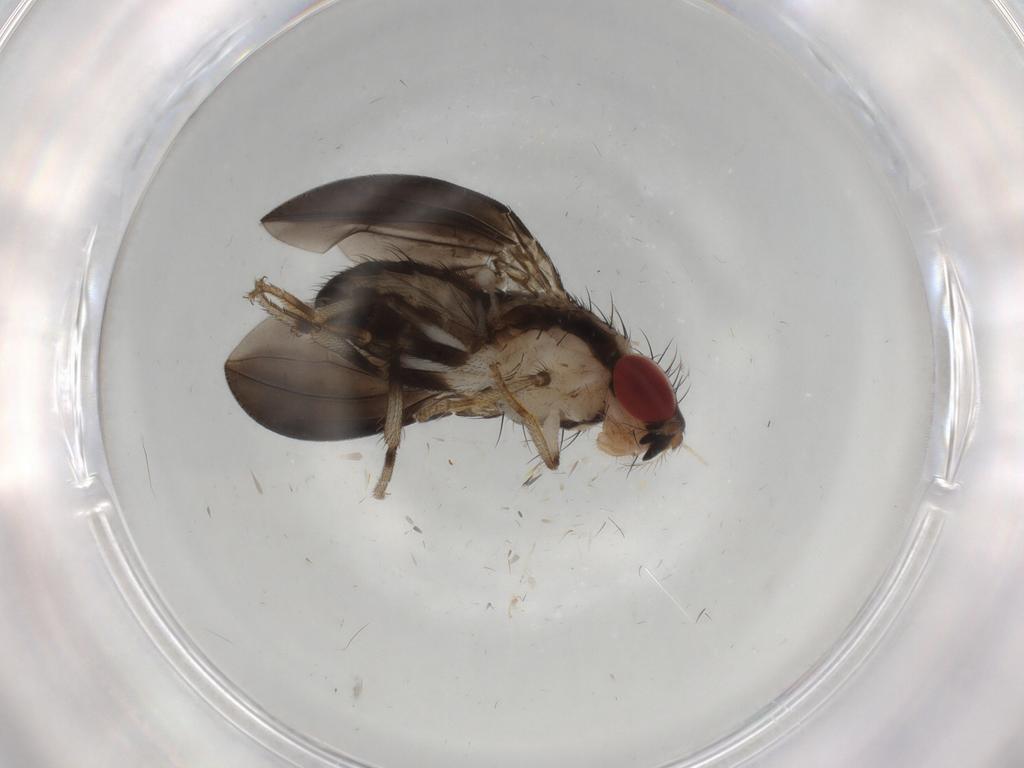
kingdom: Animalia
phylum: Arthropoda
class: Insecta
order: Diptera
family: Drosophilidae
